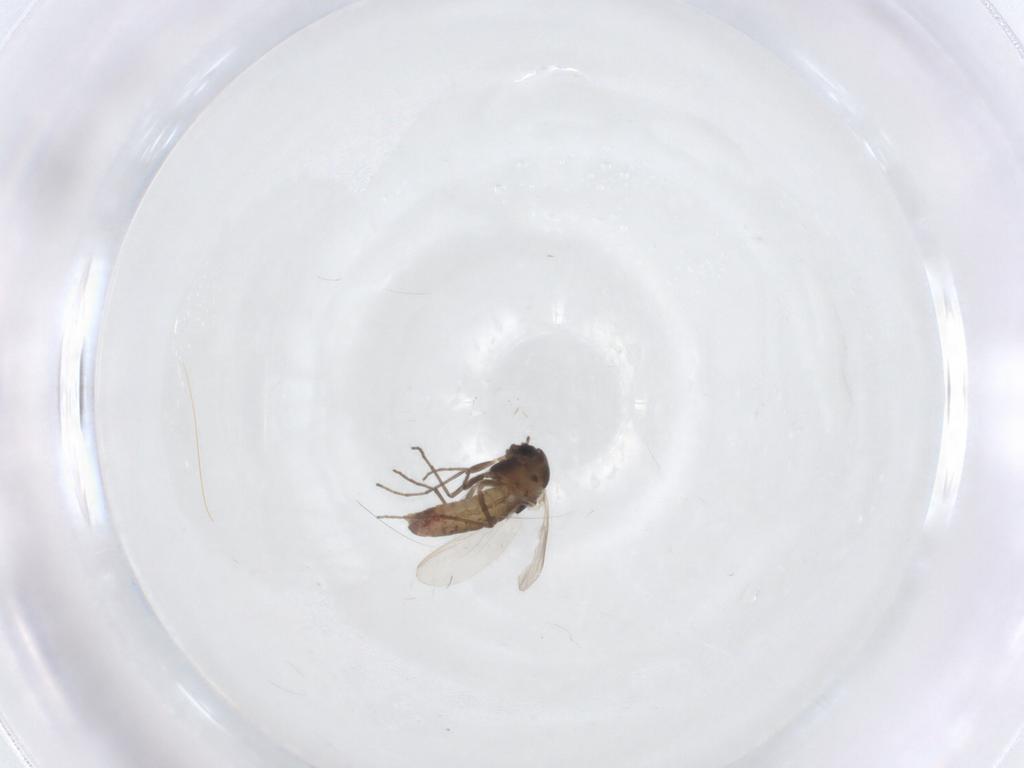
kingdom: Animalia
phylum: Arthropoda
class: Insecta
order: Diptera
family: Chironomidae
